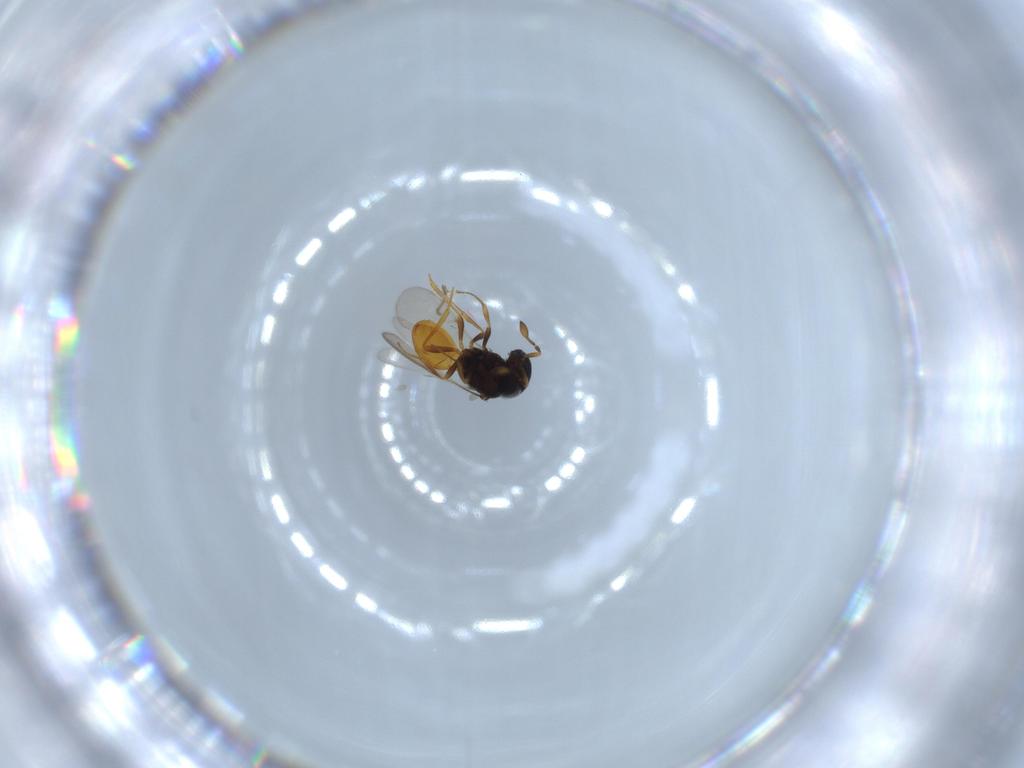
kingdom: Animalia
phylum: Arthropoda
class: Insecta
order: Hymenoptera
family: Scelionidae
